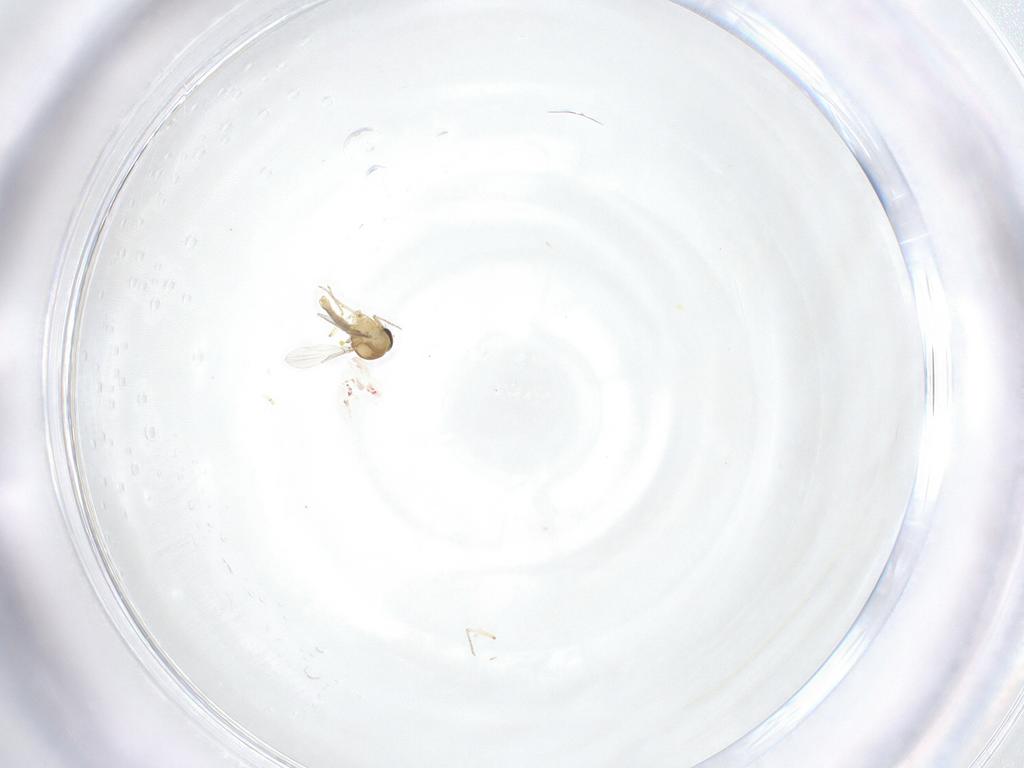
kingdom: Animalia
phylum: Arthropoda
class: Insecta
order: Diptera
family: Ceratopogonidae
